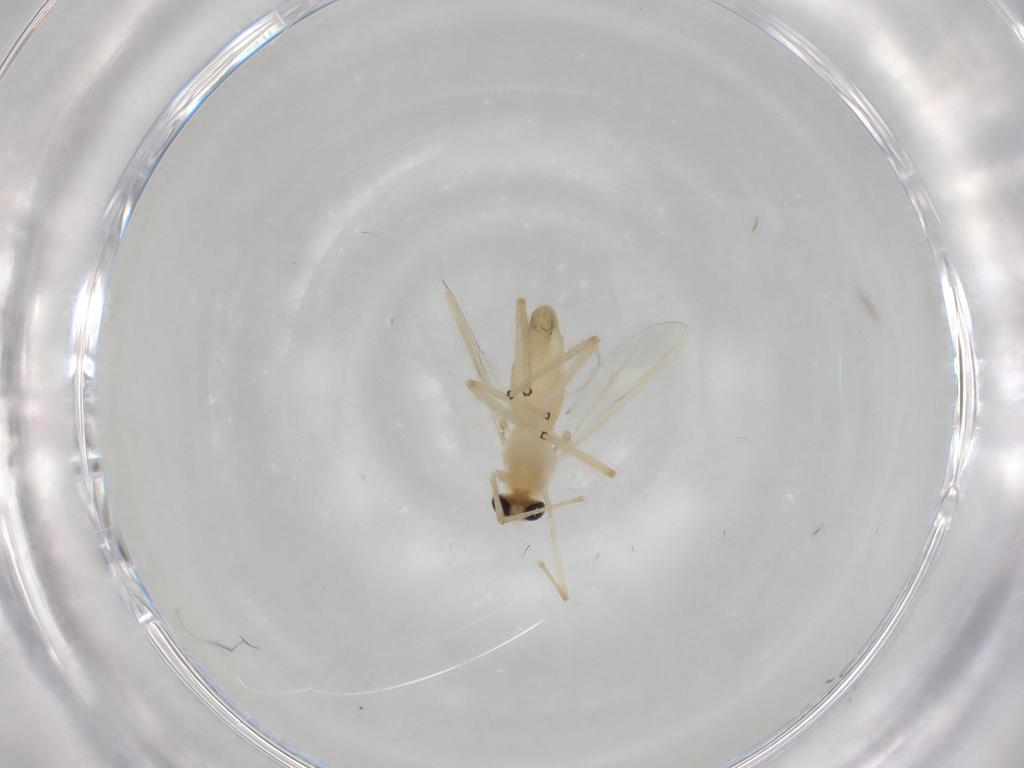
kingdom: Animalia
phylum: Arthropoda
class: Insecta
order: Diptera
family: Chironomidae
